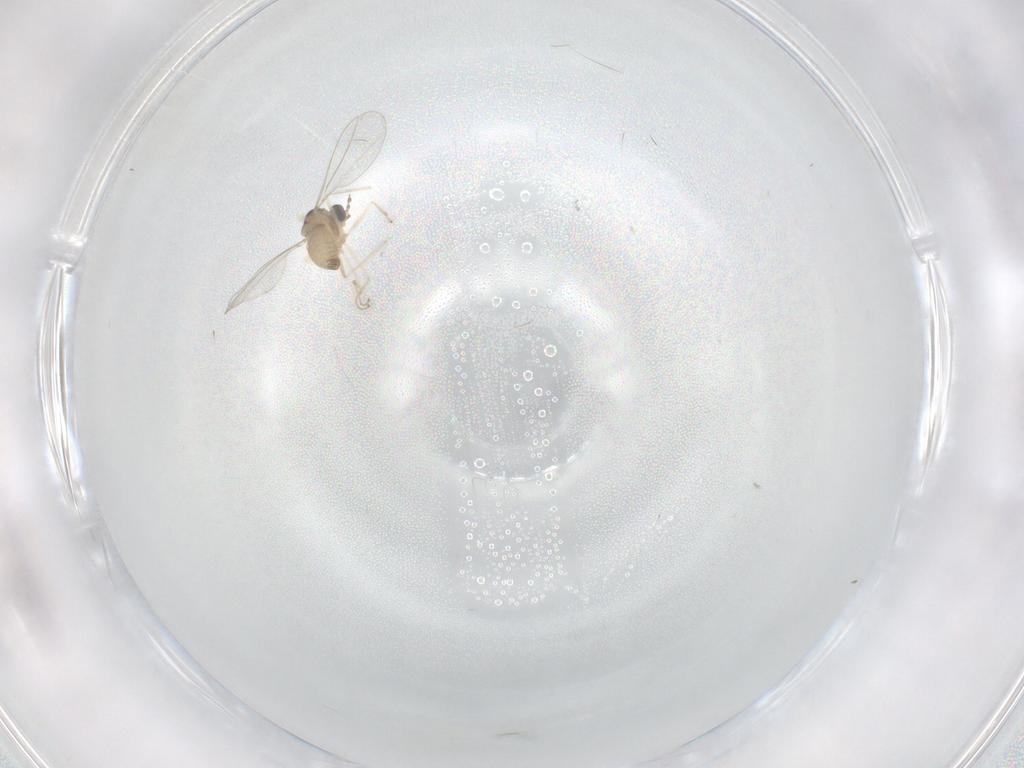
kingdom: Animalia
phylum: Arthropoda
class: Insecta
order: Diptera
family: Cecidomyiidae
